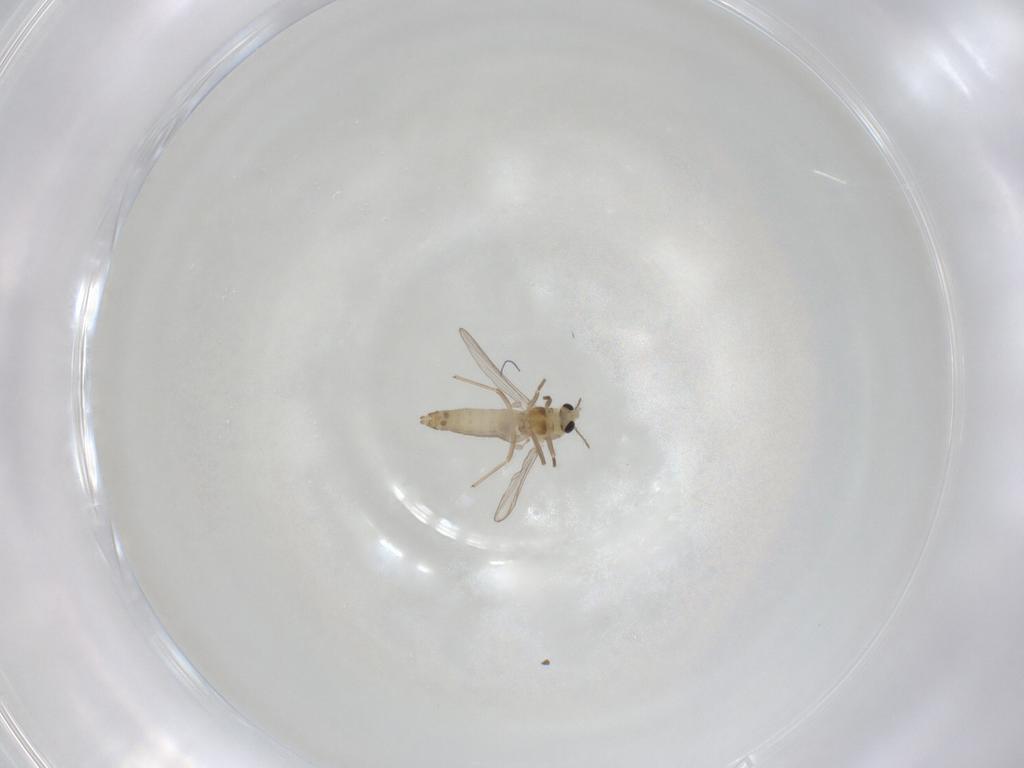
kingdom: Animalia
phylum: Arthropoda
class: Insecta
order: Diptera
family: Chironomidae
